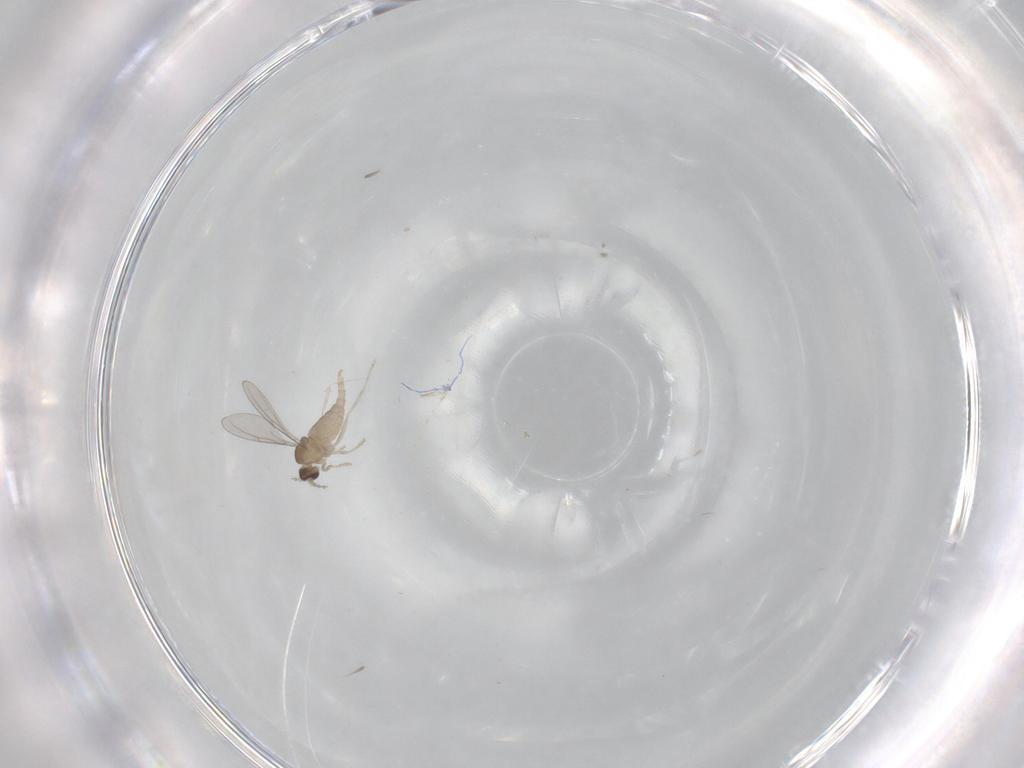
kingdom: Animalia
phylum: Arthropoda
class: Insecta
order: Diptera
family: Cecidomyiidae
